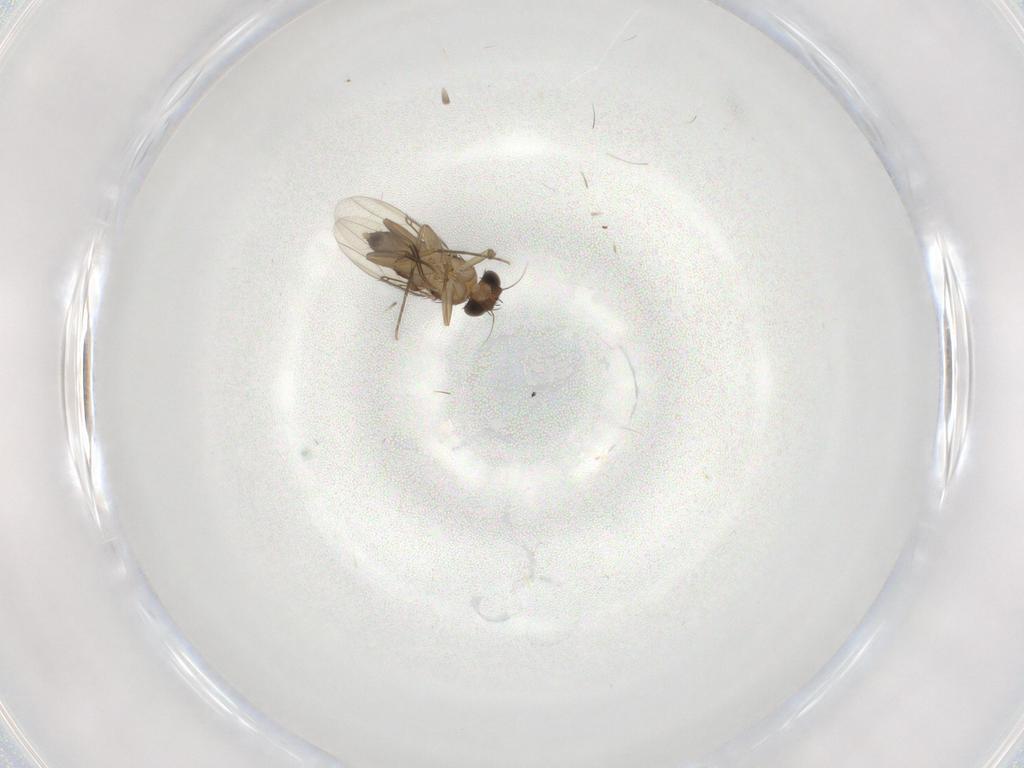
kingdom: Animalia
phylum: Arthropoda
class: Insecta
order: Diptera
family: Phoridae
